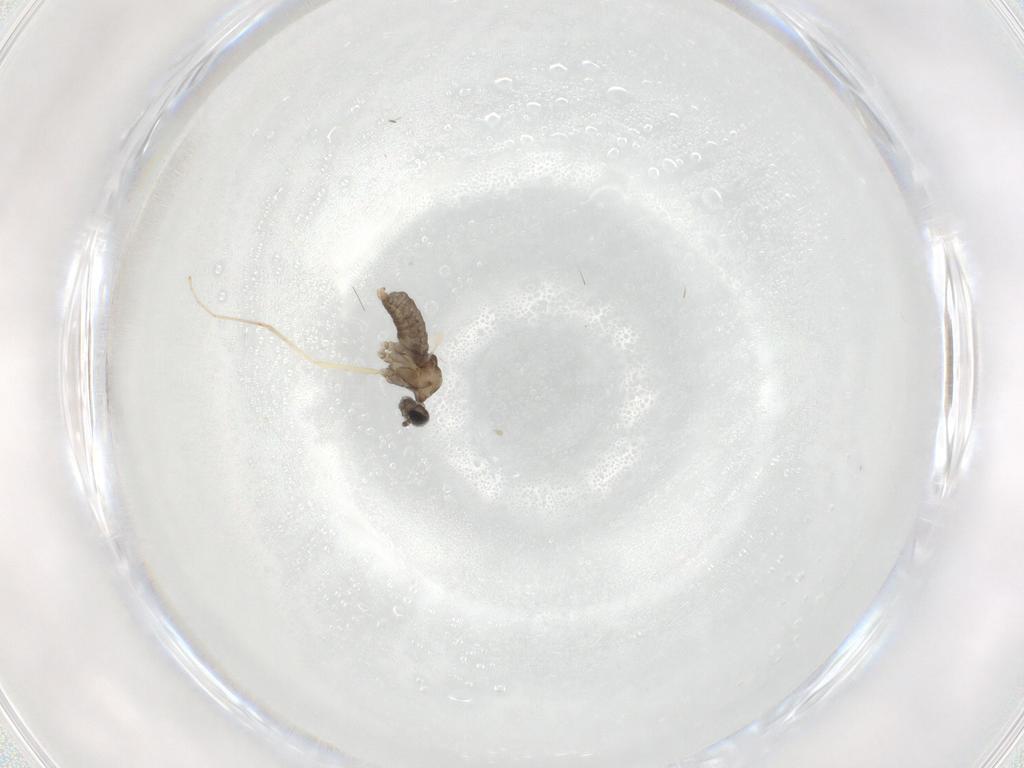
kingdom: Animalia
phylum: Arthropoda
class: Insecta
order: Diptera
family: Cecidomyiidae
